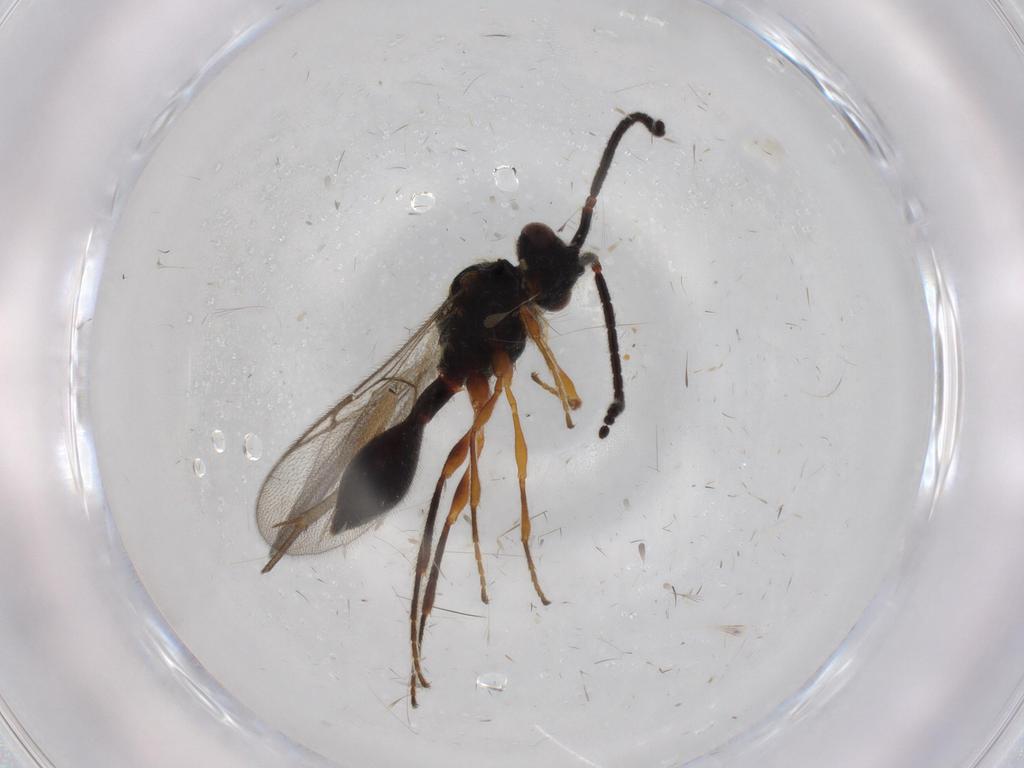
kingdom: Animalia
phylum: Arthropoda
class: Insecta
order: Hymenoptera
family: Diapriidae
